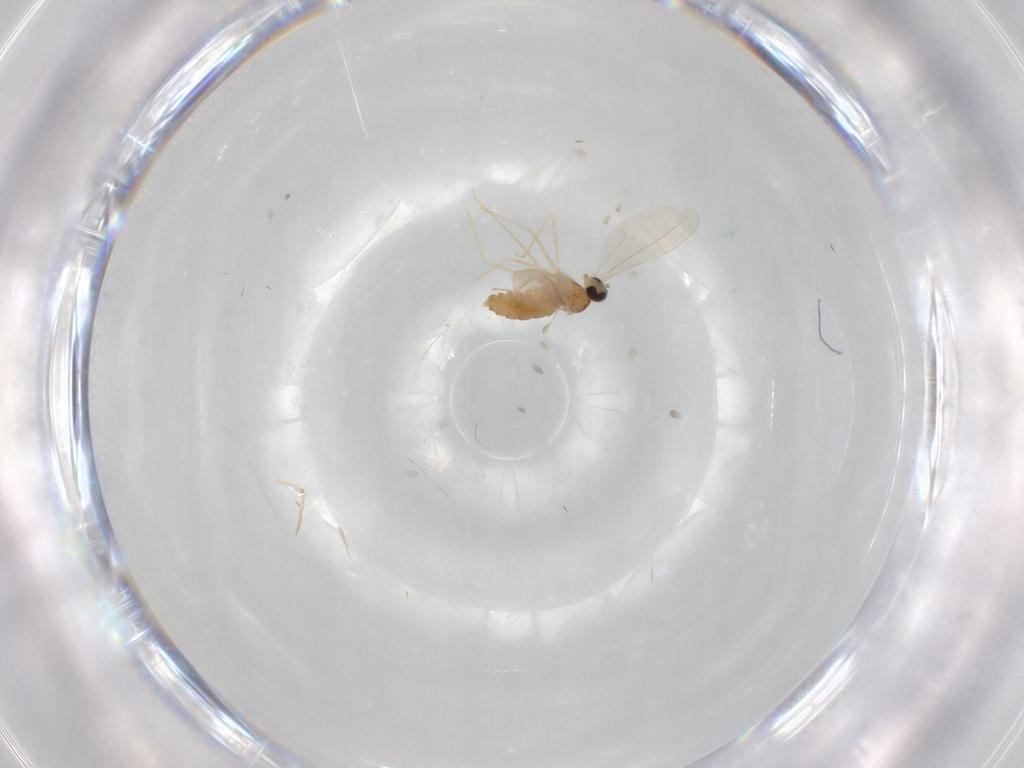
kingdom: Animalia
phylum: Arthropoda
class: Insecta
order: Diptera
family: Cecidomyiidae
